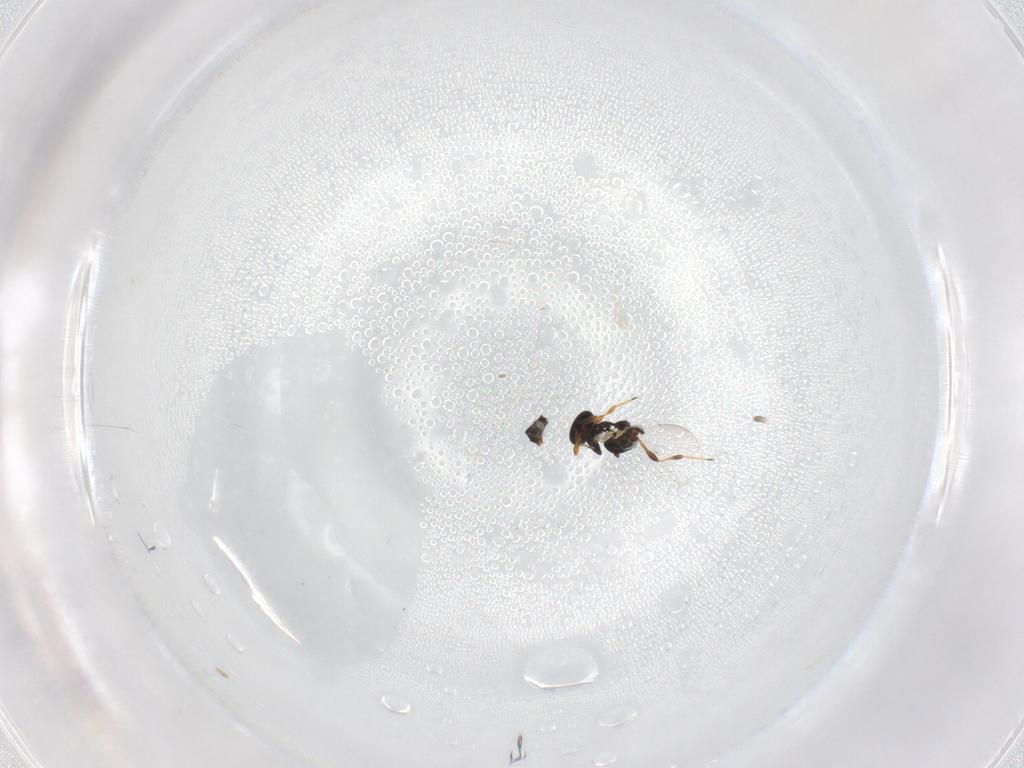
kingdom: Animalia
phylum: Arthropoda
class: Insecta
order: Hymenoptera
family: Platygastridae
